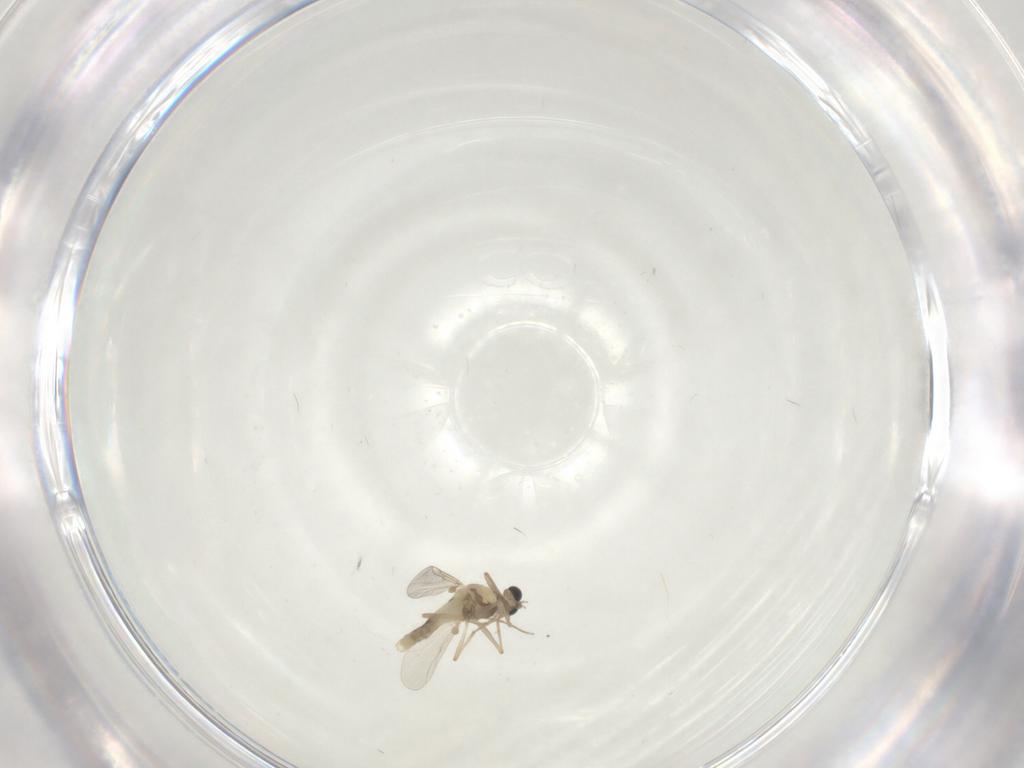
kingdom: Animalia
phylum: Arthropoda
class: Insecta
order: Diptera
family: Chironomidae
